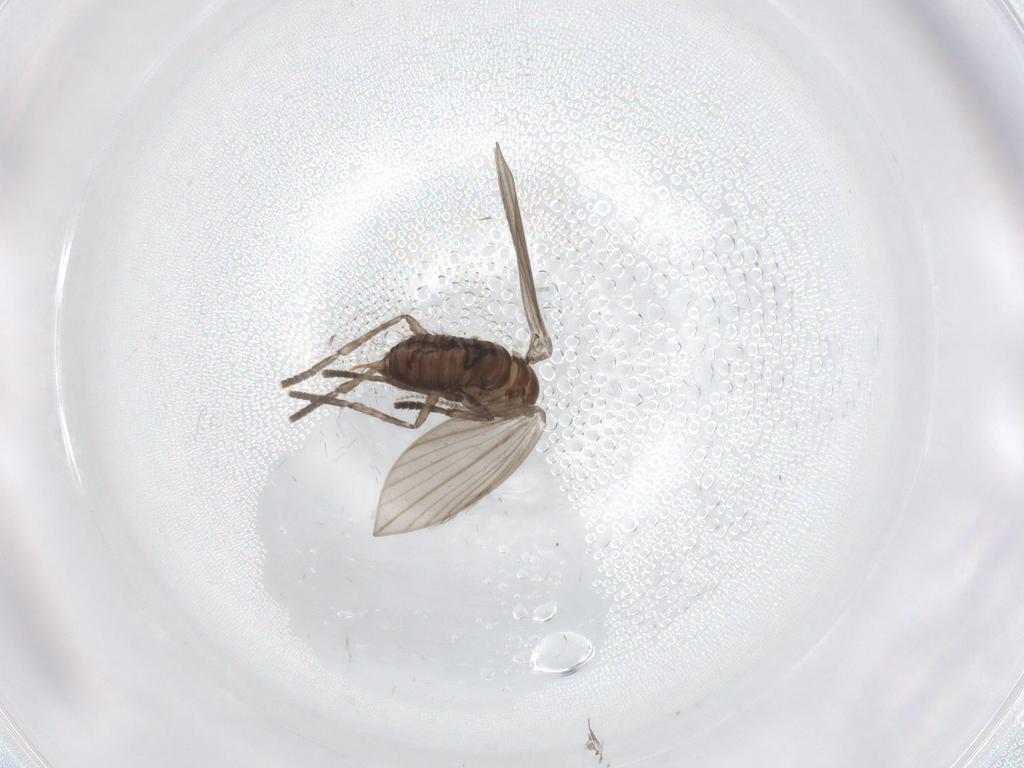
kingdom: Animalia
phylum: Arthropoda
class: Insecta
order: Diptera
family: Psychodidae
